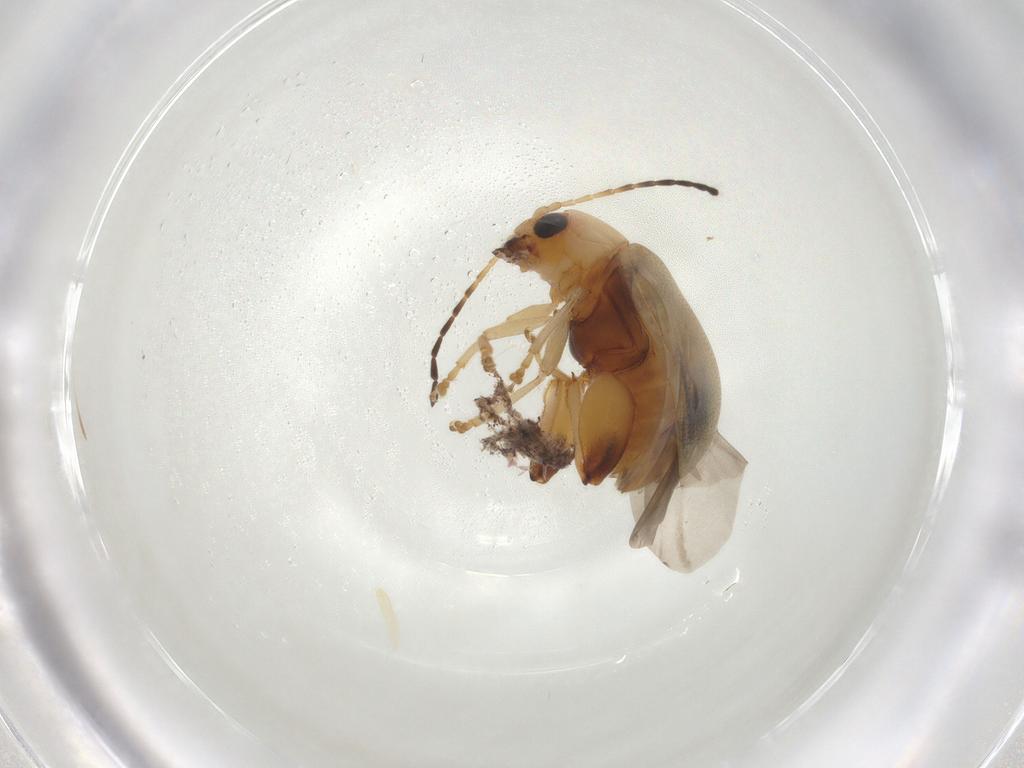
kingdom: Animalia
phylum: Arthropoda
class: Insecta
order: Coleoptera
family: Chrysomelidae
